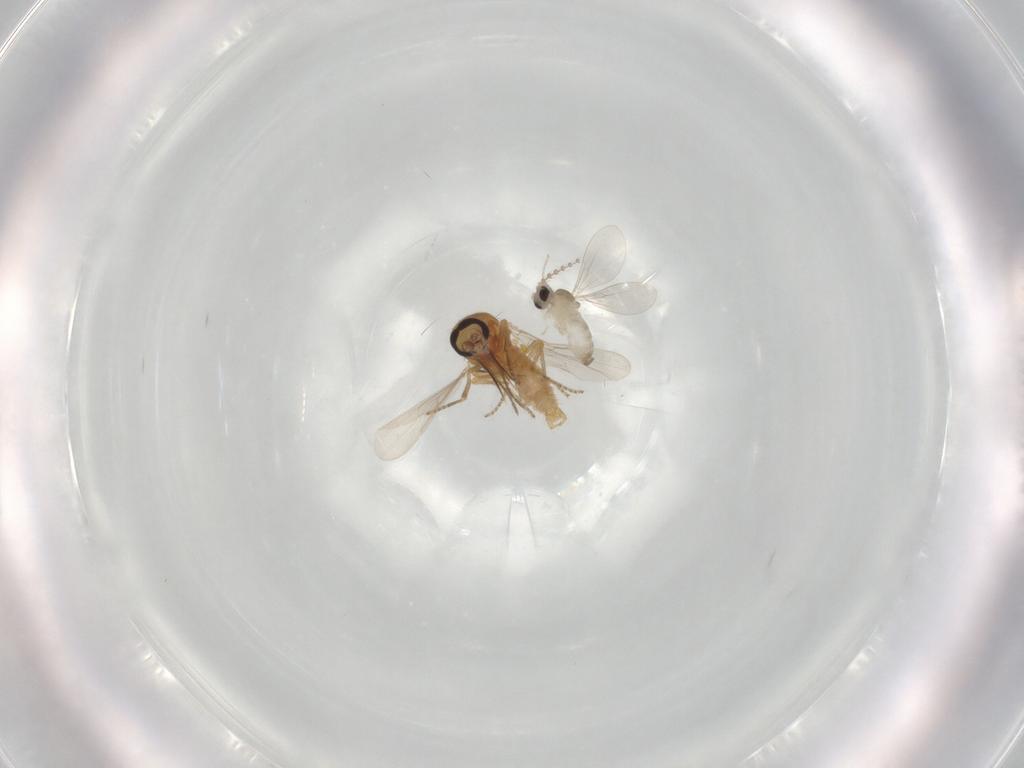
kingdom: Animalia
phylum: Arthropoda
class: Insecta
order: Diptera
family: Ceratopogonidae
